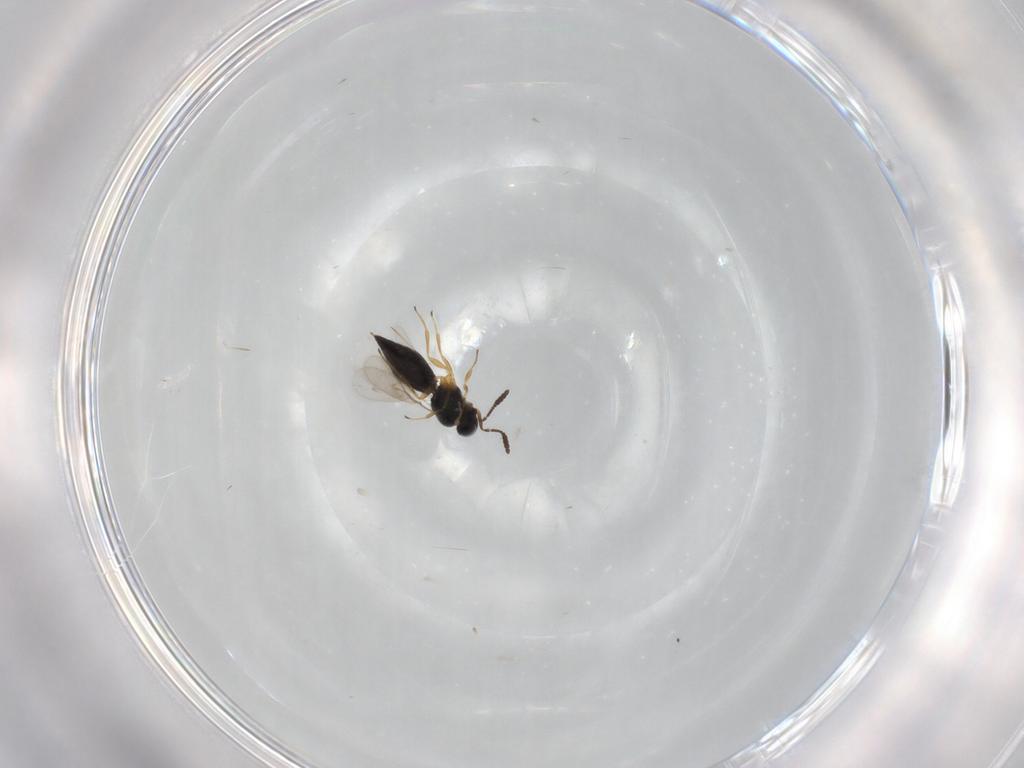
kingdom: Animalia
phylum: Arthropoda
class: Insecta
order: Hymenoptera
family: Scelionidae
